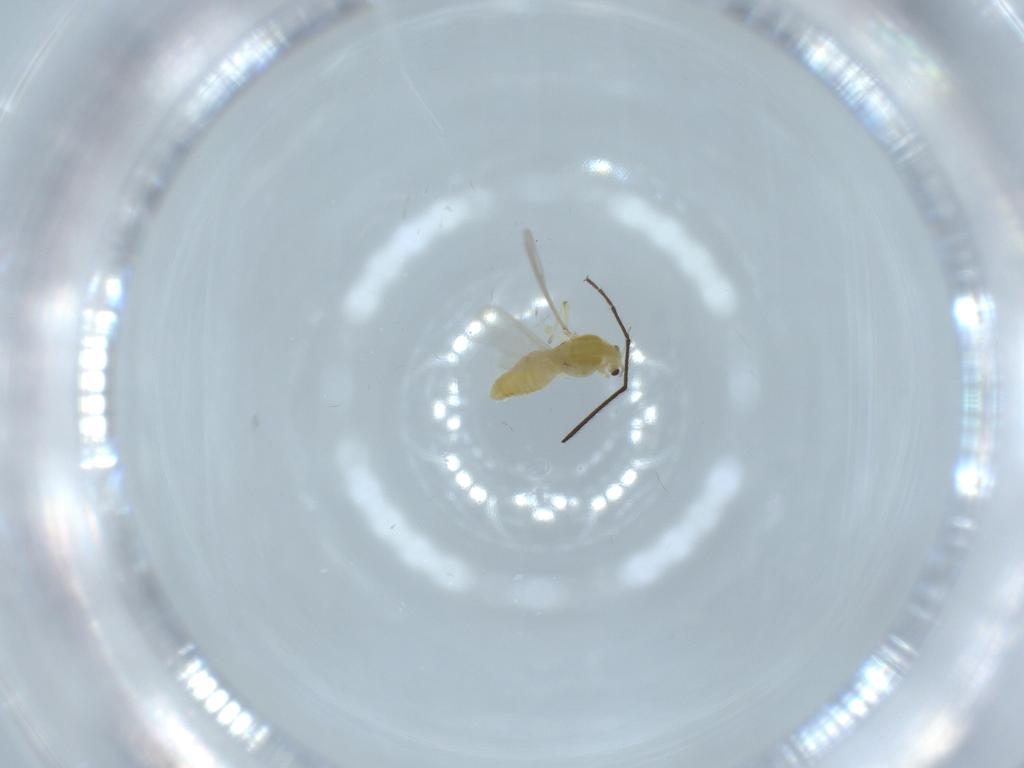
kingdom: Animalia
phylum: Arthropoda
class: Insecta
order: Diptera
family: Chironomidae
